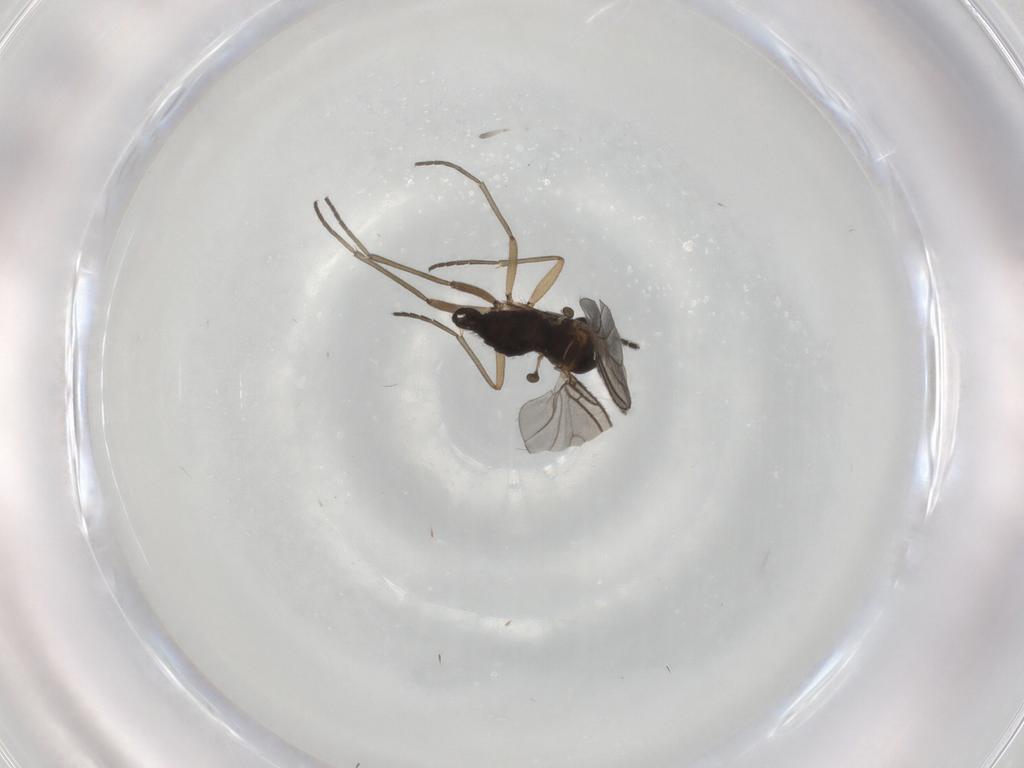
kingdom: Animalia
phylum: Arthropoda
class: Insecta
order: Diptera
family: Sciaridae
